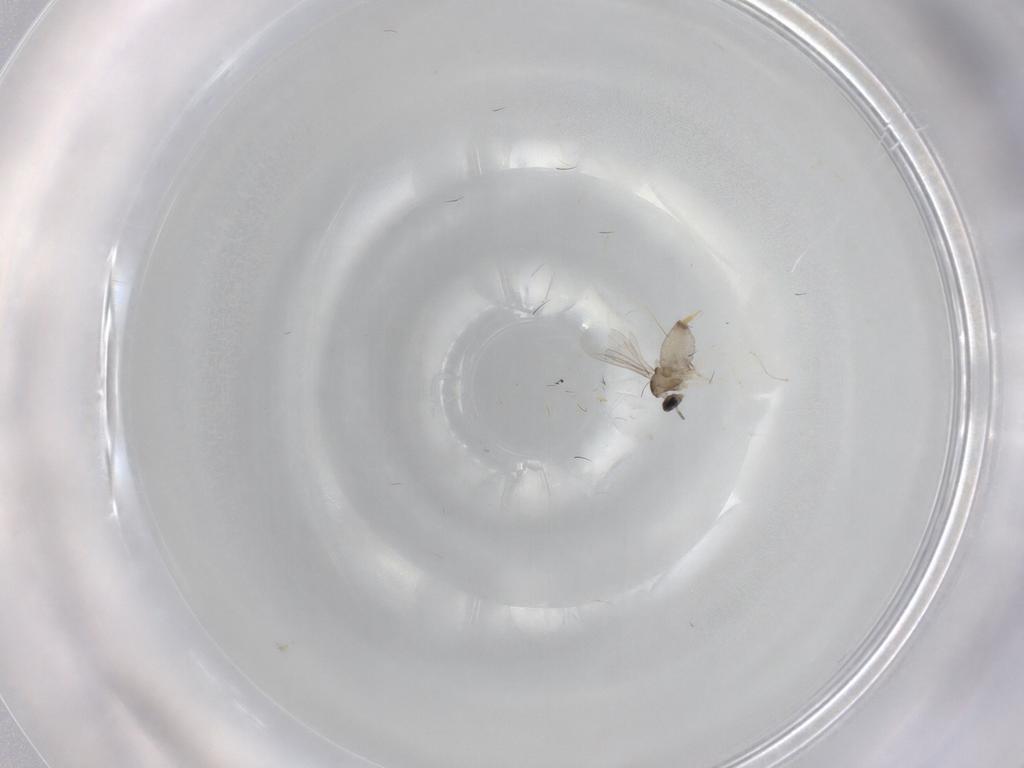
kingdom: Animalia
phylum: Arthropoda
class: Insecta
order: Diptera
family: Cecidomyiidae
